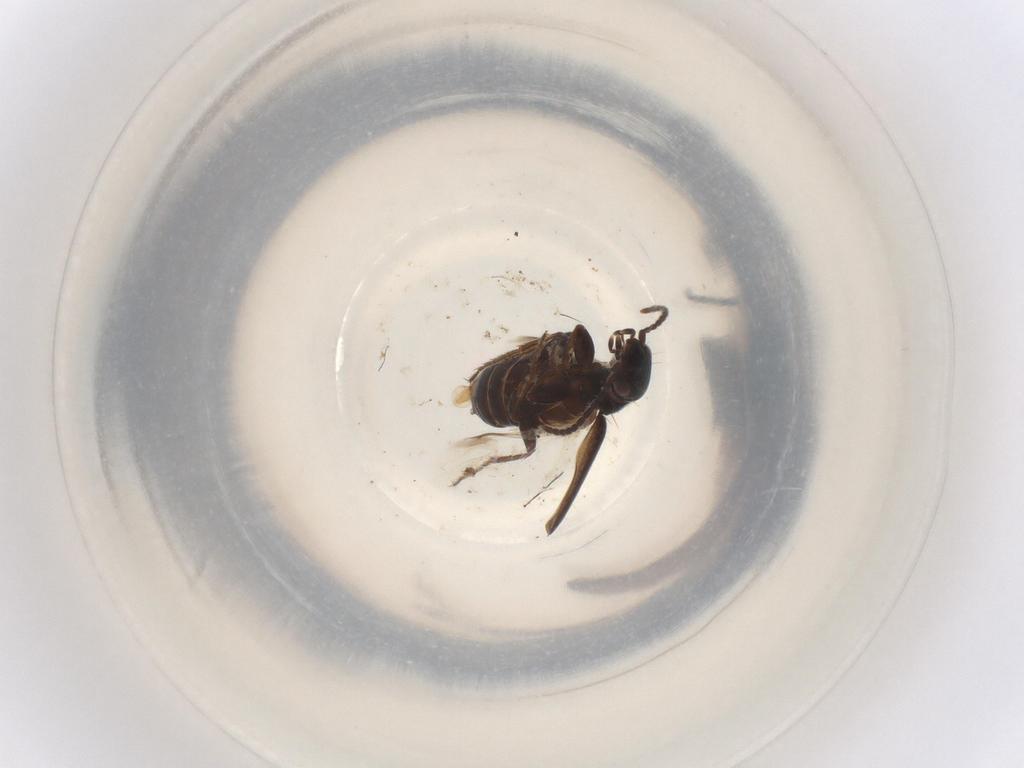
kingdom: Animalia
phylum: Arthropoda
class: Insecta
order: Coleoptera
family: Carabidae
